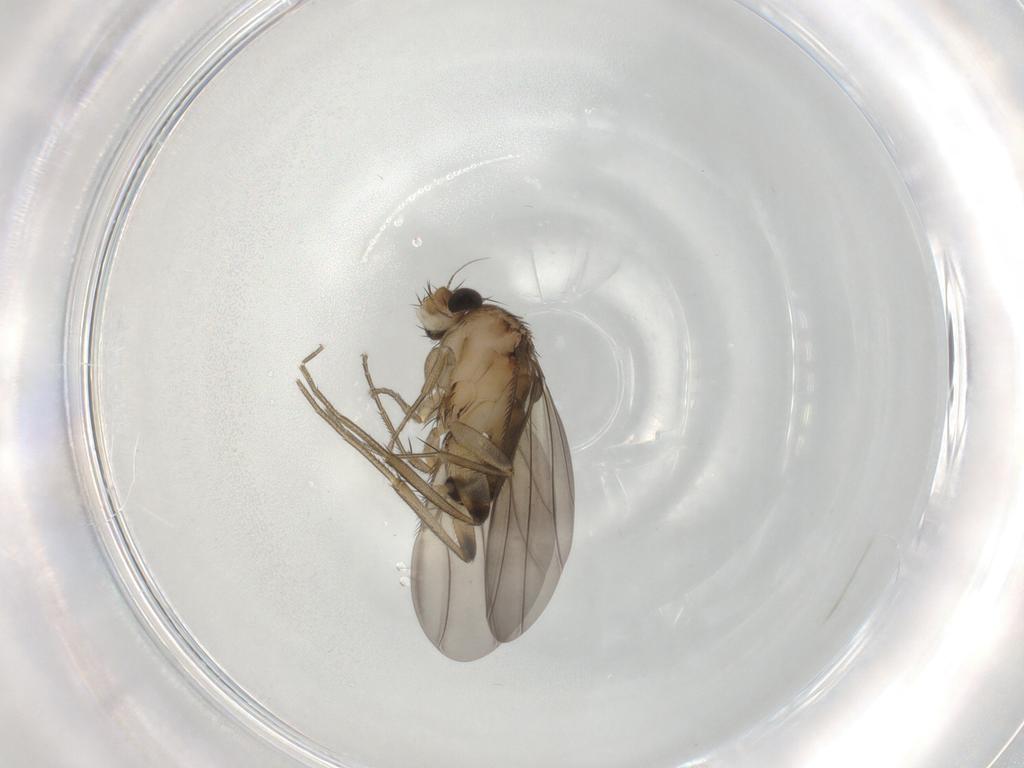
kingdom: Animalia
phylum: Arthropoda
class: Insecta
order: Diptera
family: Phoridae
